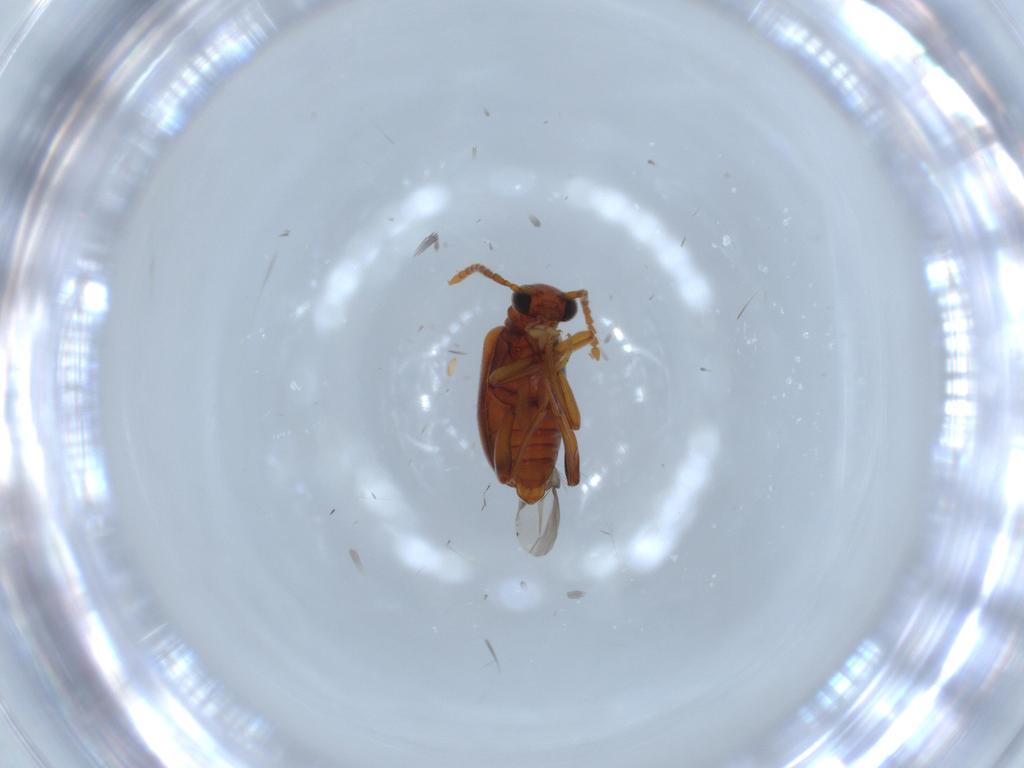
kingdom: Animalia
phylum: Arthropoda
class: Insecta
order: Coleoptera
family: Aderidae
